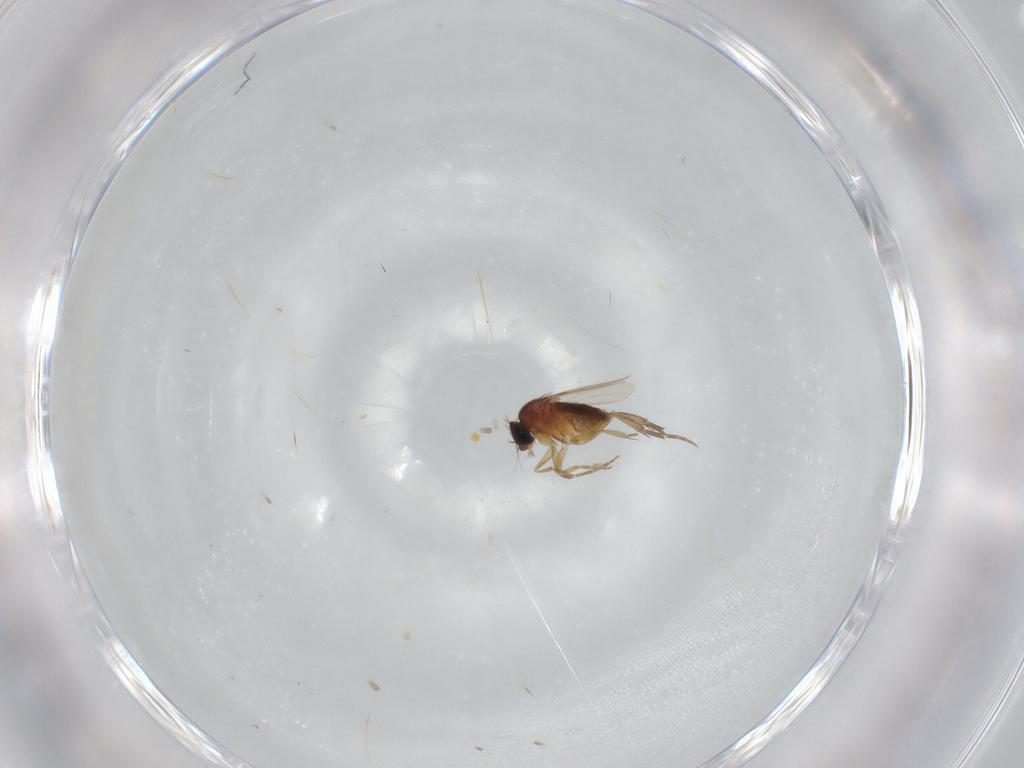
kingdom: Animalia
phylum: Arthropoda
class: Insecta
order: Diptera
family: Phoridae
